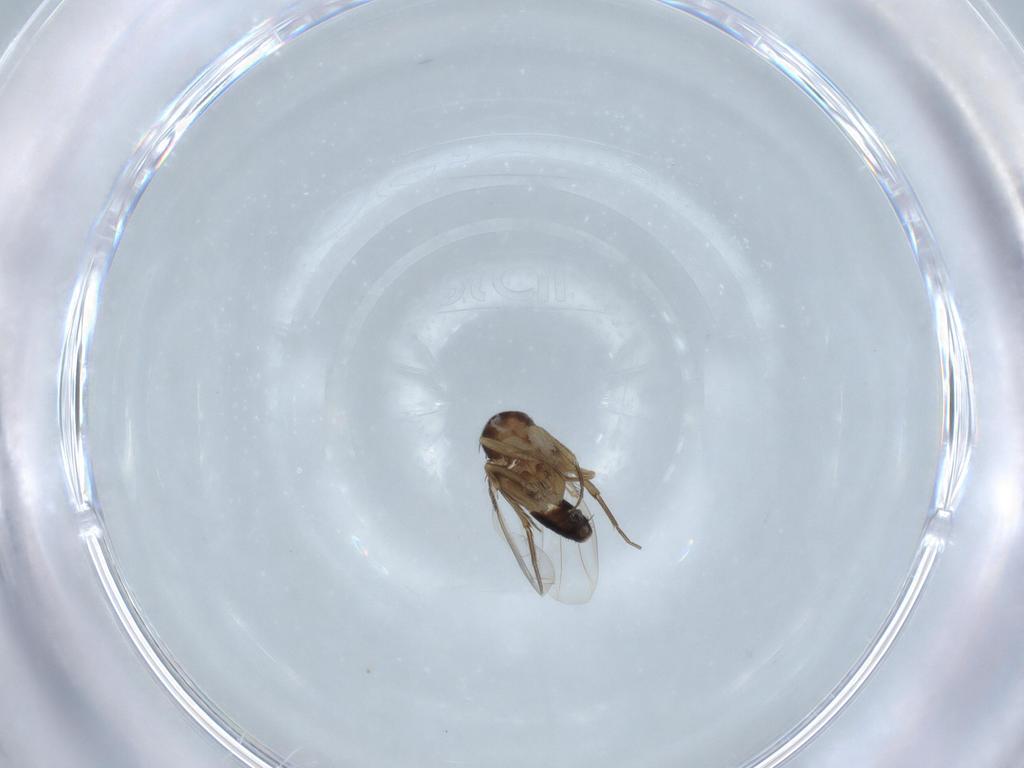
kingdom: Animalia
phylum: Arthropoda
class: Insecta
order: Diptera
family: Phoridae
